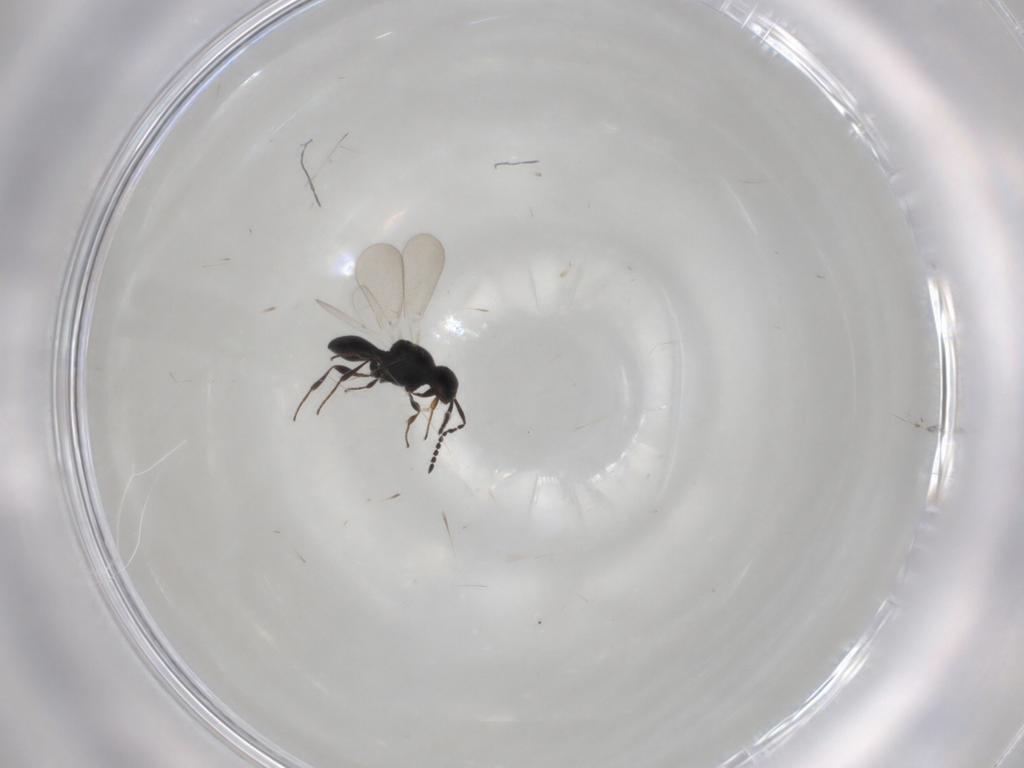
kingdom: Animalia
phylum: Arthropoda
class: Insecta
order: Hymenoptera
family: Platygastridae
